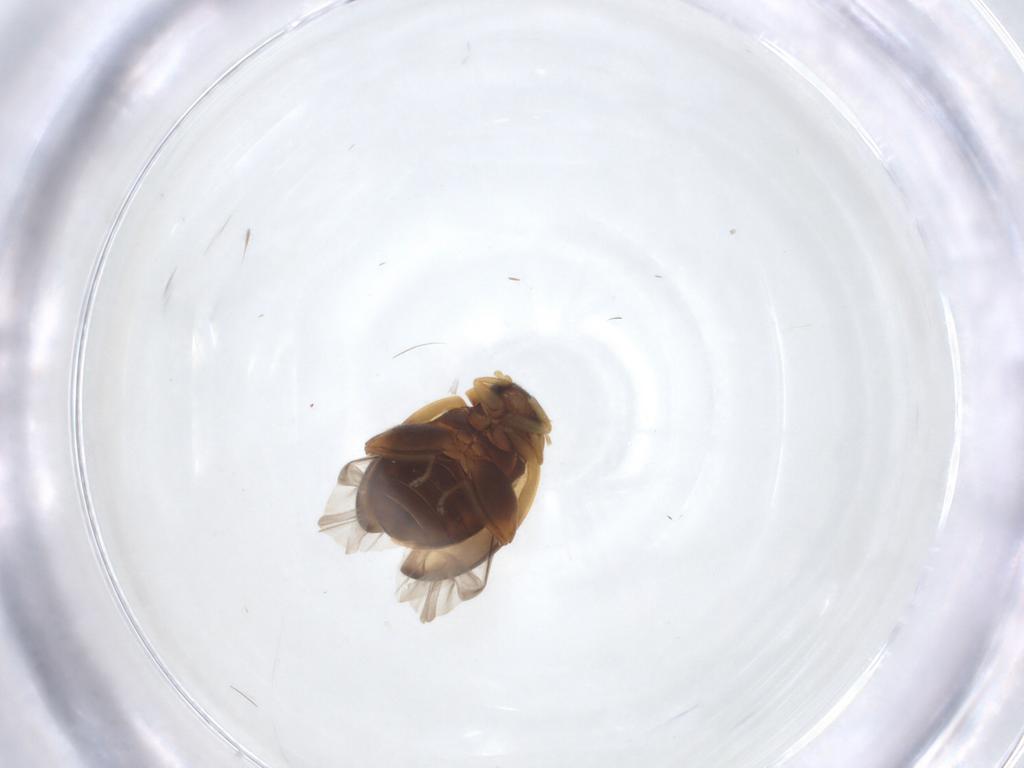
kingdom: Animalia
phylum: Arthropoda
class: Insecta
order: Coleoptera
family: Scirtidae
